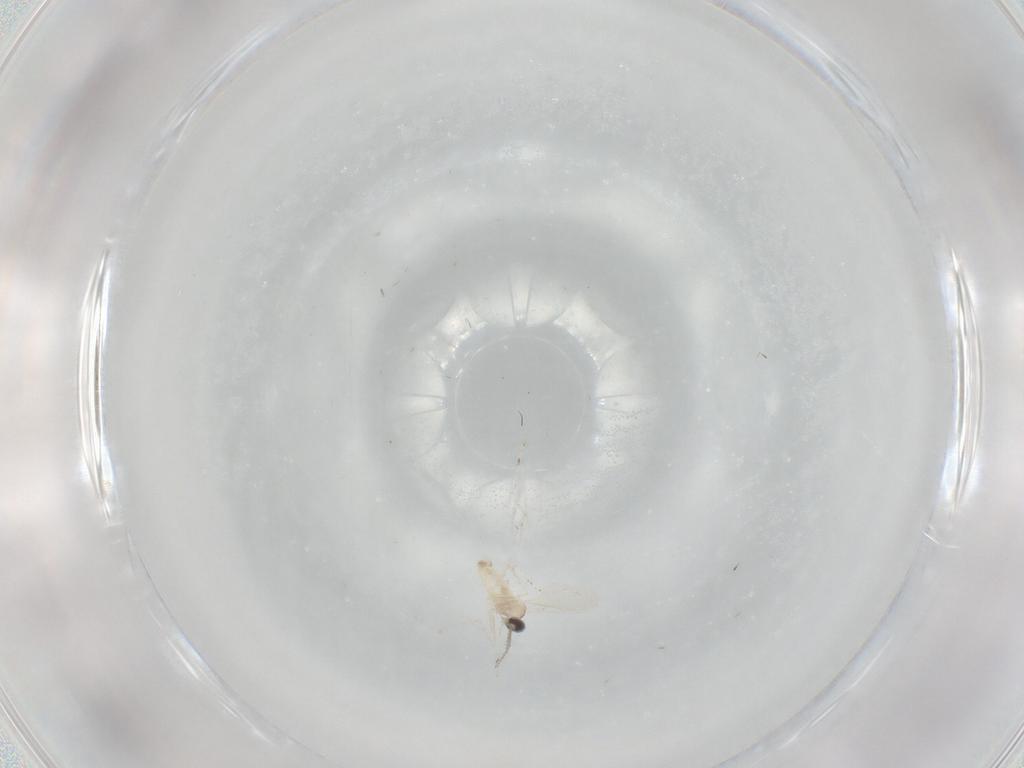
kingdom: Animalia
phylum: Arthropoda
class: Insecta
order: Diptera
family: Cecidomyiidae
